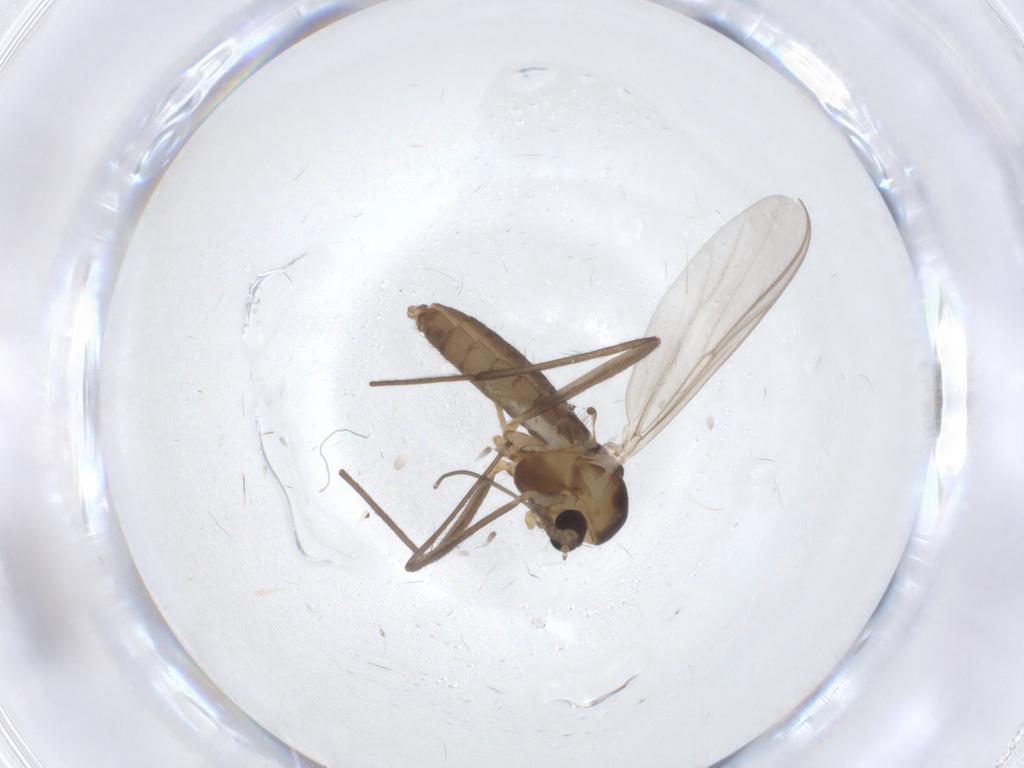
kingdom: Animalia
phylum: Arthropoda
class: Insecta
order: Diptera
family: Chironomidae
